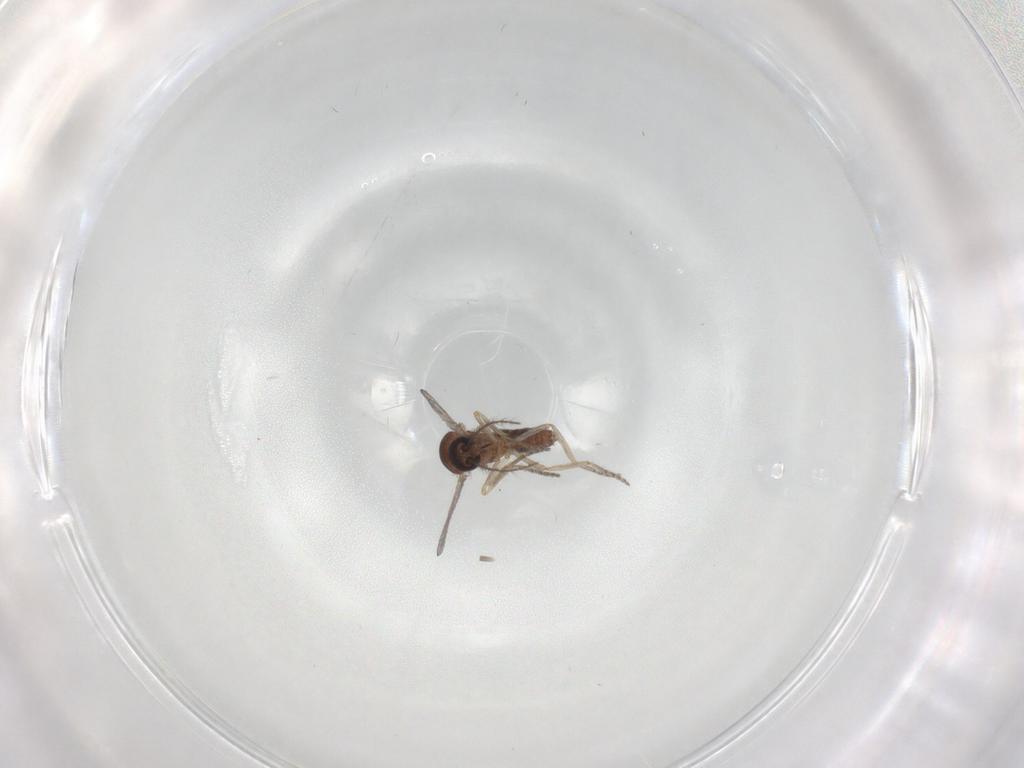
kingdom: Animalia
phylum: Arthropoda
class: Insecta
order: Diptera
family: Ceratopogonidae
